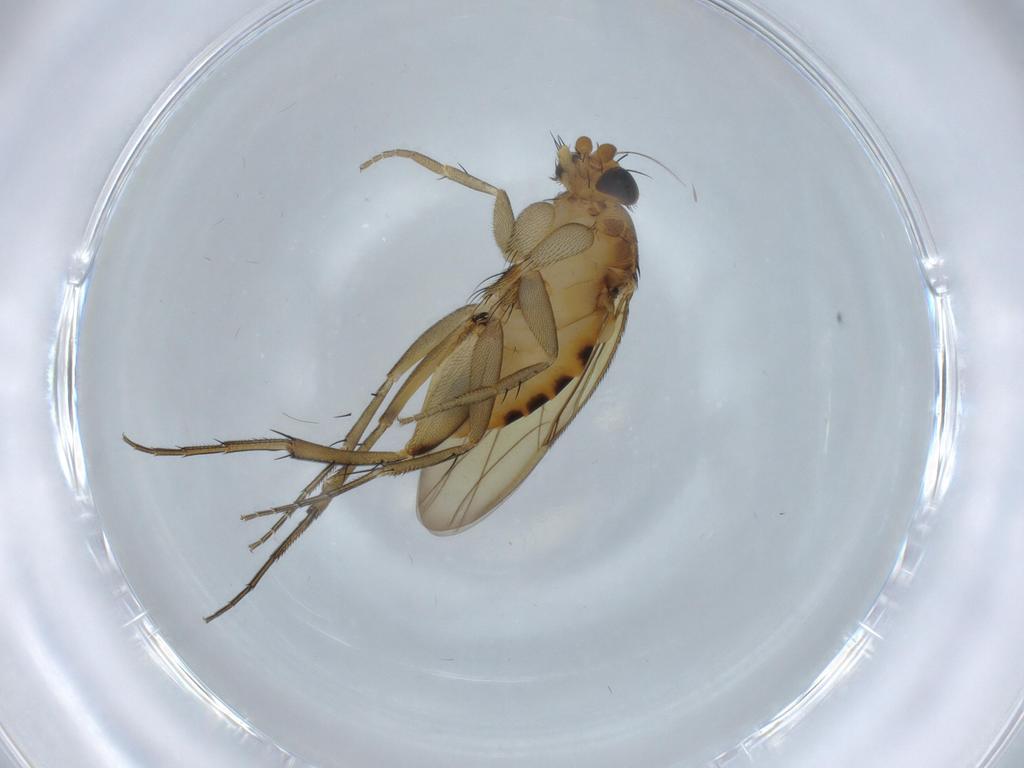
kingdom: Animalia
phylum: Arthropoda
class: Insecta
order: Diptera
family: Phoridae
